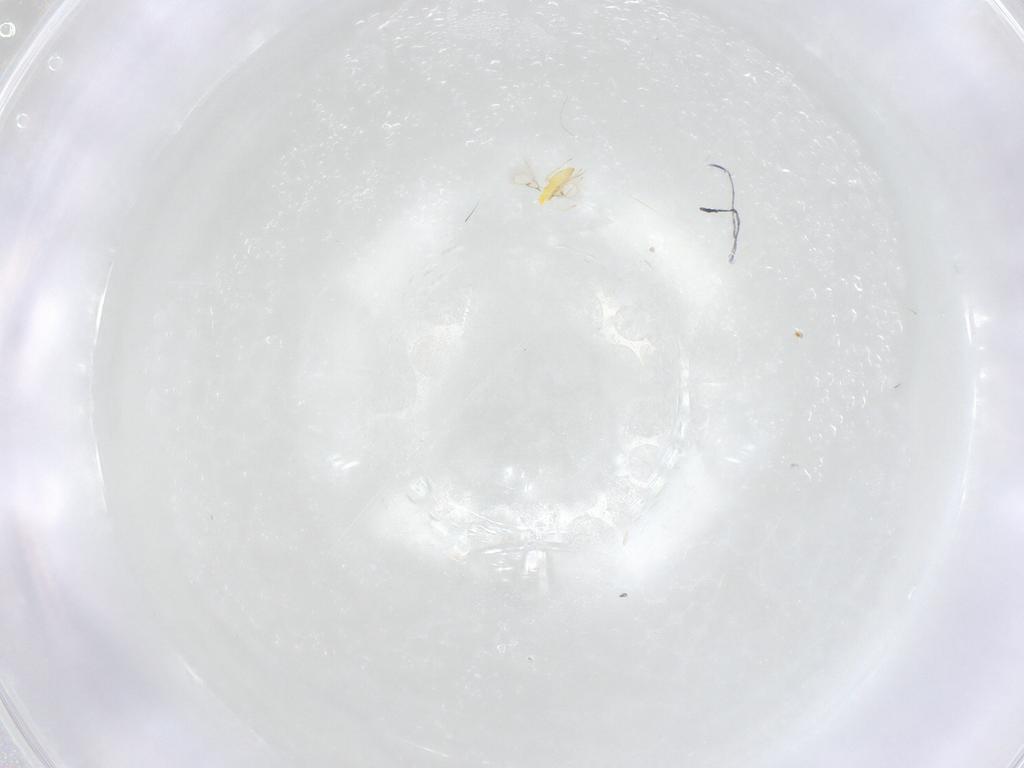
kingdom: Animalia
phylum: Arthropoda
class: Insecta
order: Hymenoptera
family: Trichogrammatidae
